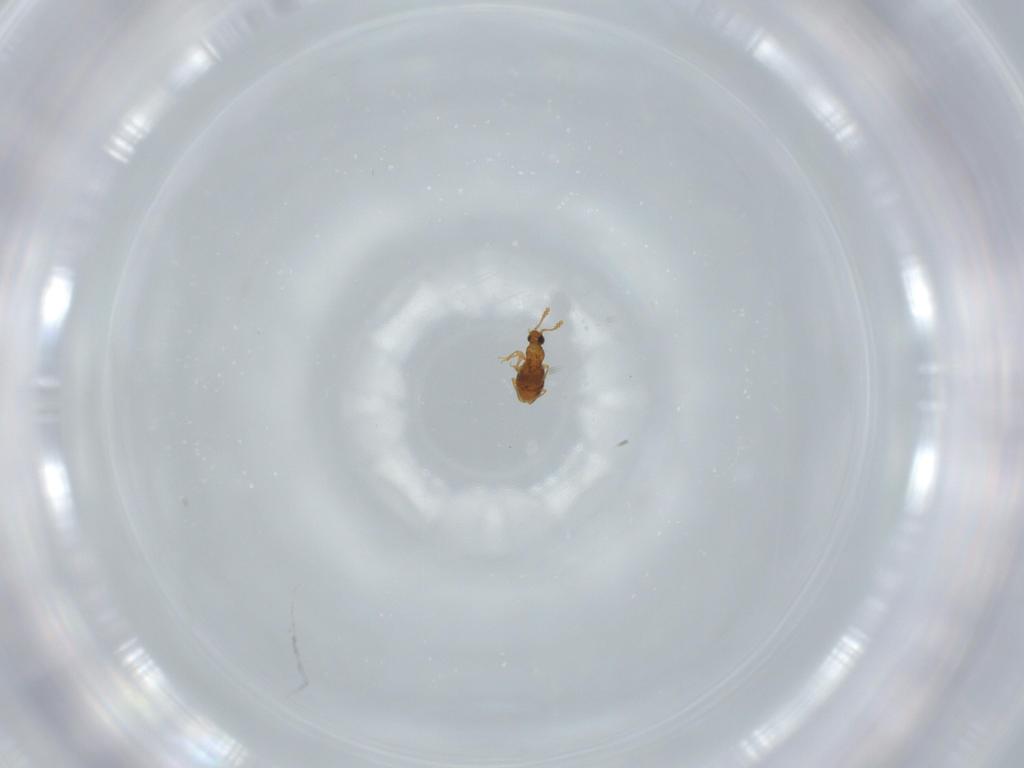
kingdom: Animalia
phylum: Arthropoda
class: Insecta
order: Coleoptera
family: Staphylinidae
